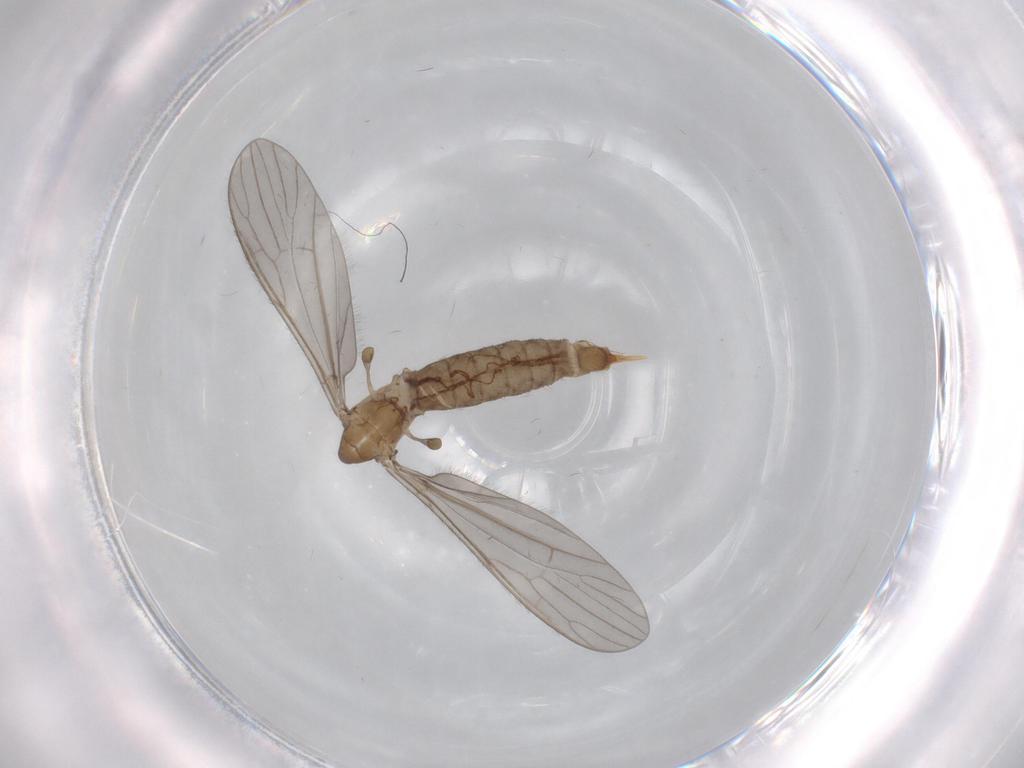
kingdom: Animalia
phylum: Arthropoda
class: Insecta
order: Diptera
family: Limoniidae
